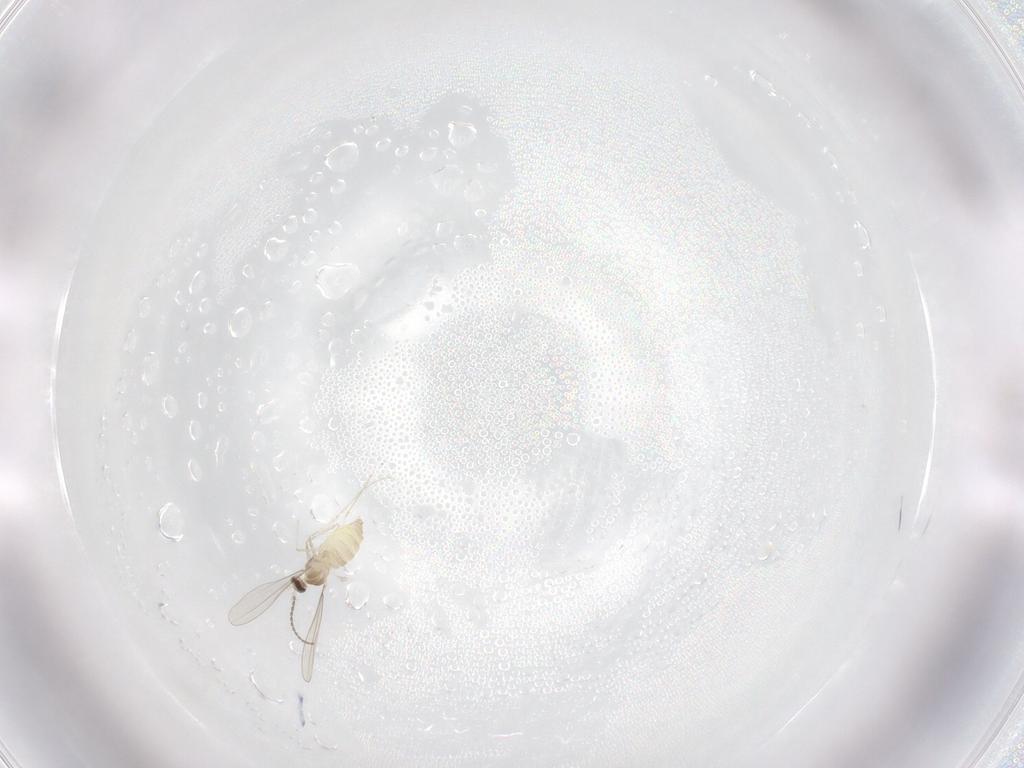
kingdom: Animalia
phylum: Arthropoda
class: Insecta
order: Diptera
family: Cecidomyiidae
